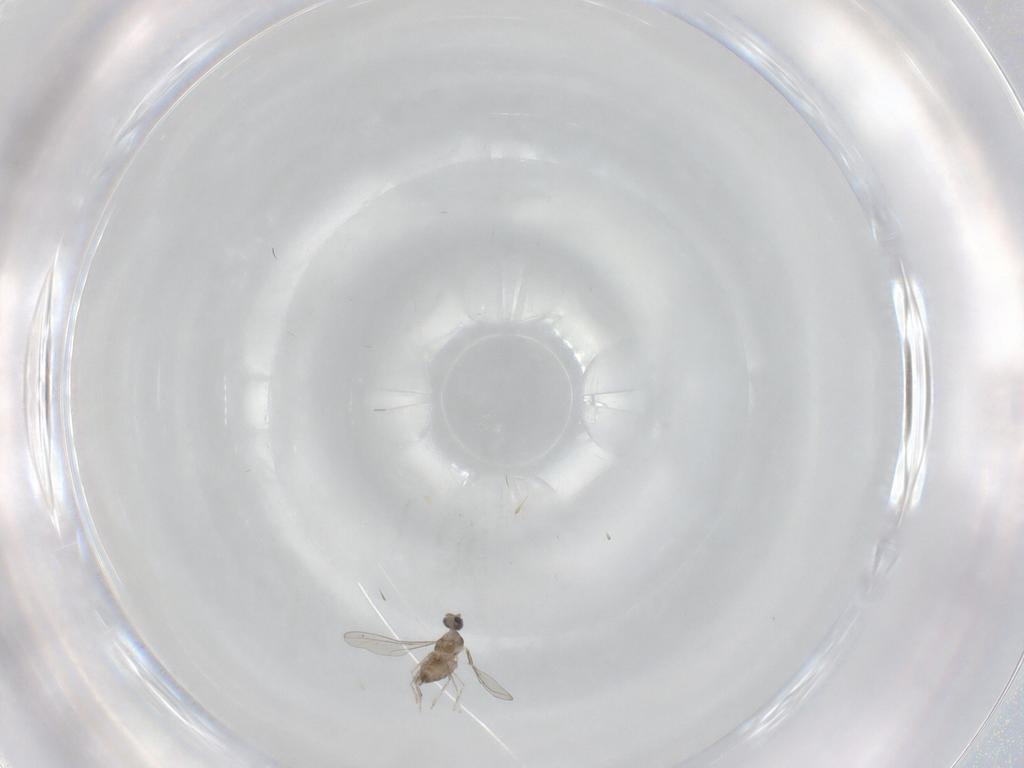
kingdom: Animalia
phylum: Arthropoda
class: Insecta
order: Diptera
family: Cecidomyiidae
